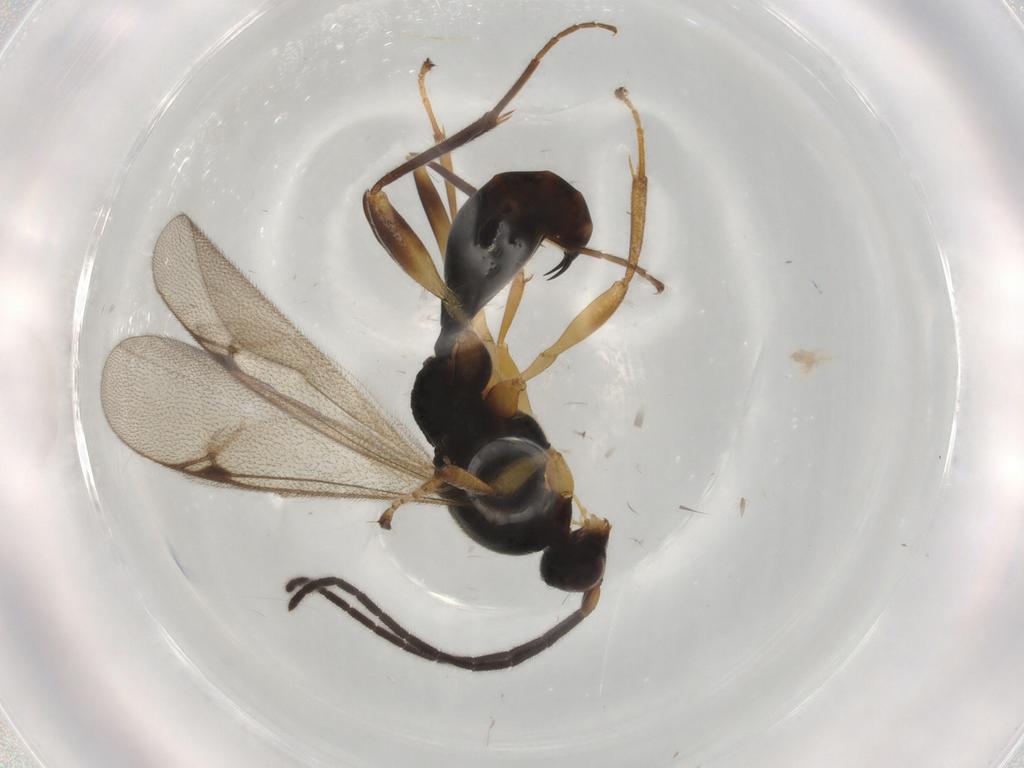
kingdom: Animalia
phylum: Arthropoda
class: Insecta
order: Hymenoptera
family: Proctotrupidae
